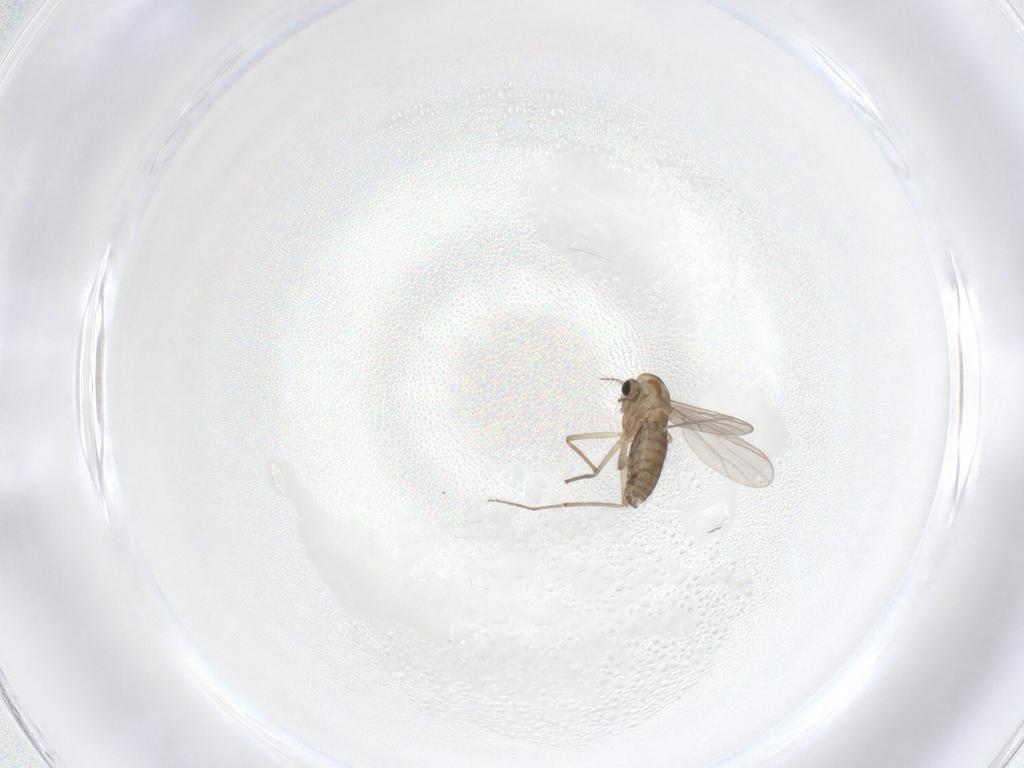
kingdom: Animalia
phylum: Arthropoda
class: Insecta
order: Diptera
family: Chironomidae
